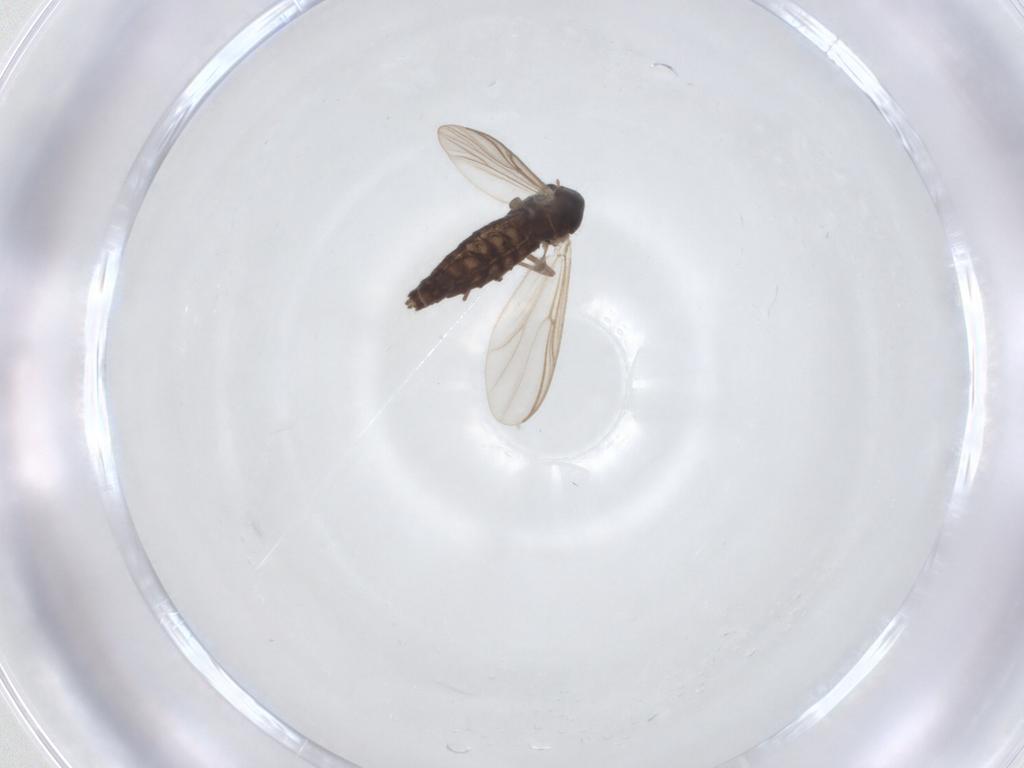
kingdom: Animalia
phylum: Arthropoda
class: Insecta
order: Diptera
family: Chironomidae
